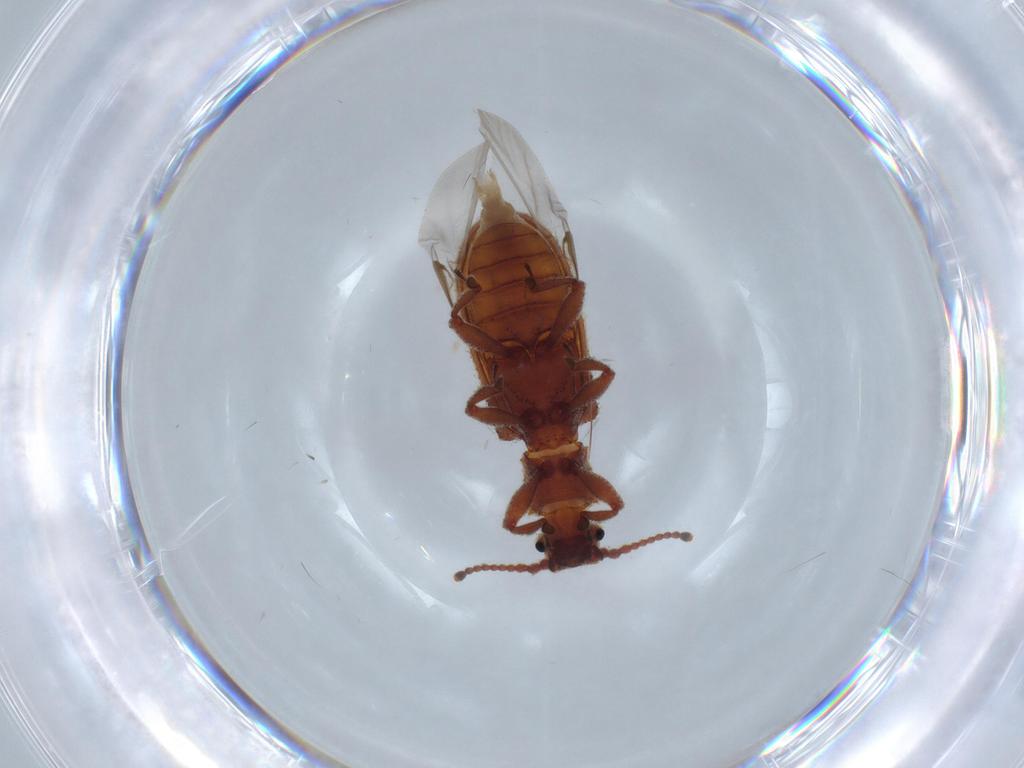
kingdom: Animalia
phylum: Arthropoda
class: Insecta
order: Coleoptera
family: Zopheridae
